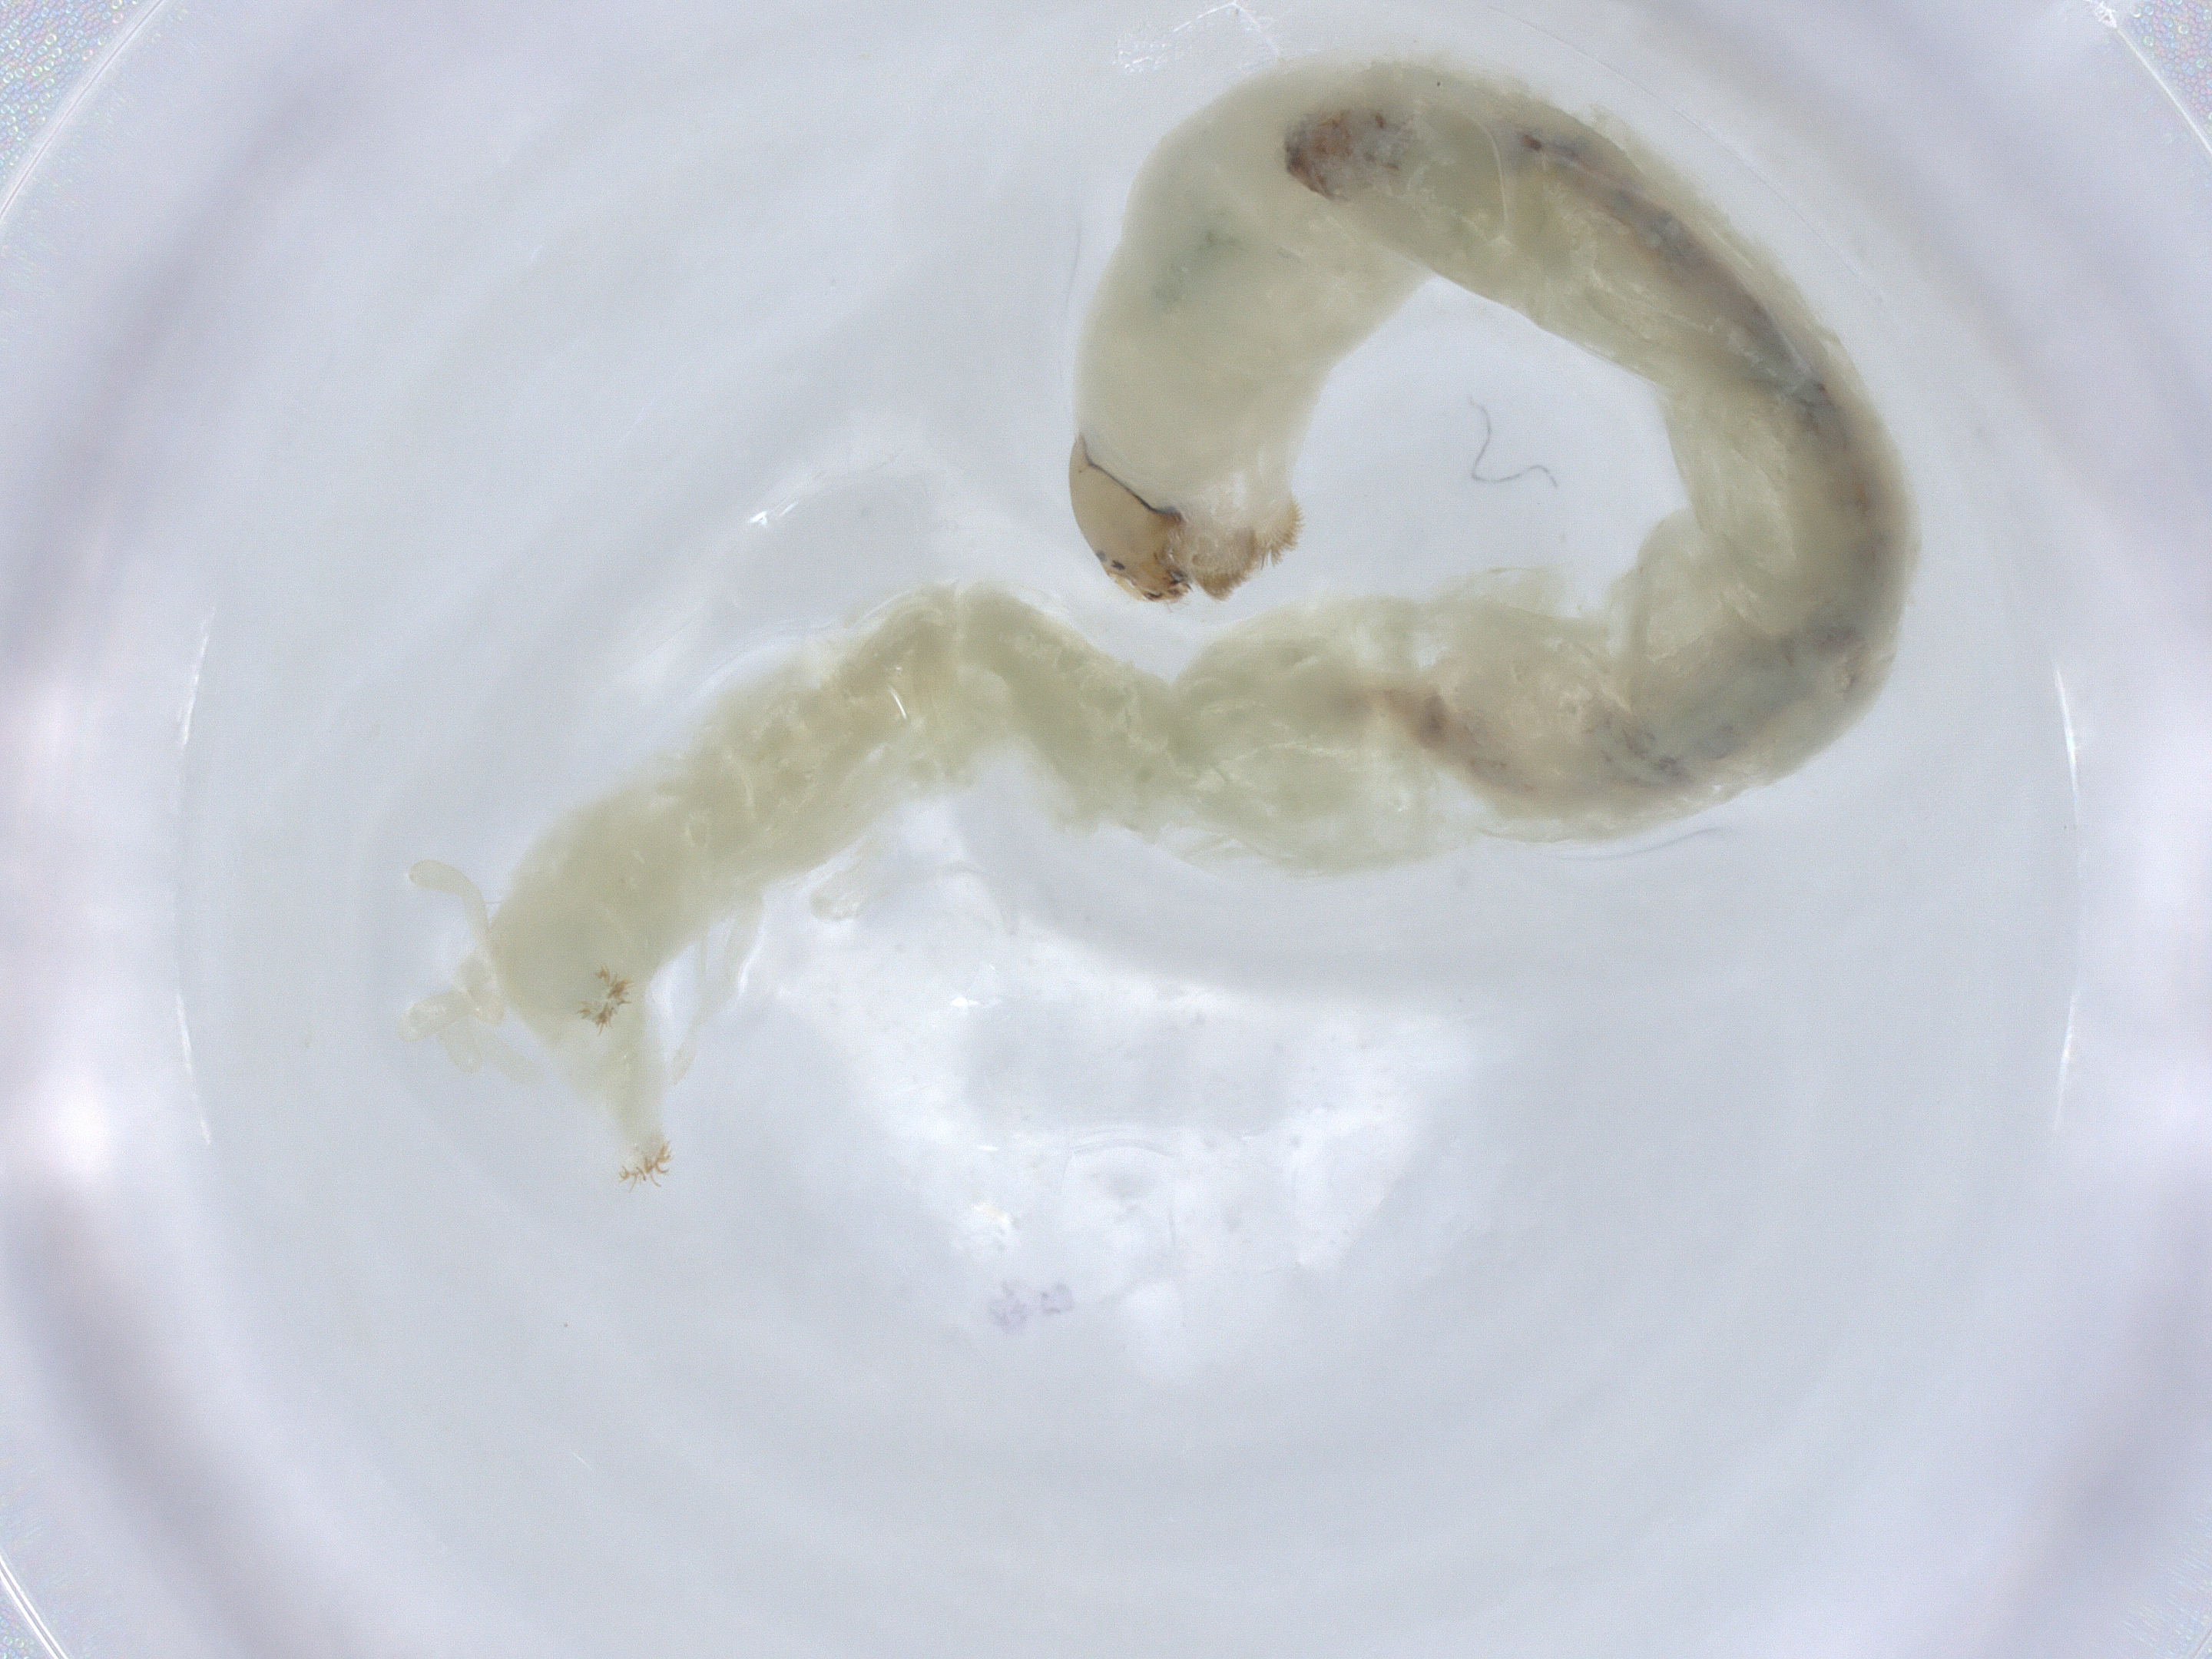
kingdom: Animalia
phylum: Arthropoda
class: Insecta
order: Diptera
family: Chironomidae
